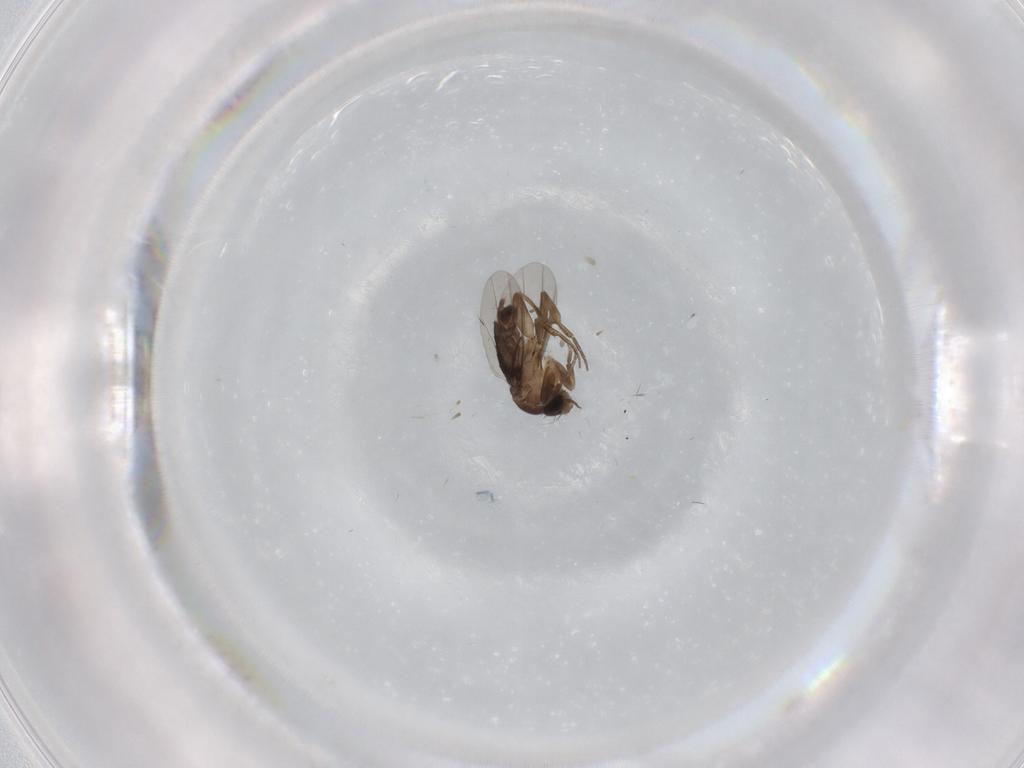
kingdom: Animalia
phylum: Arthropoda
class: Insecta
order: Diptera
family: Phoridae
